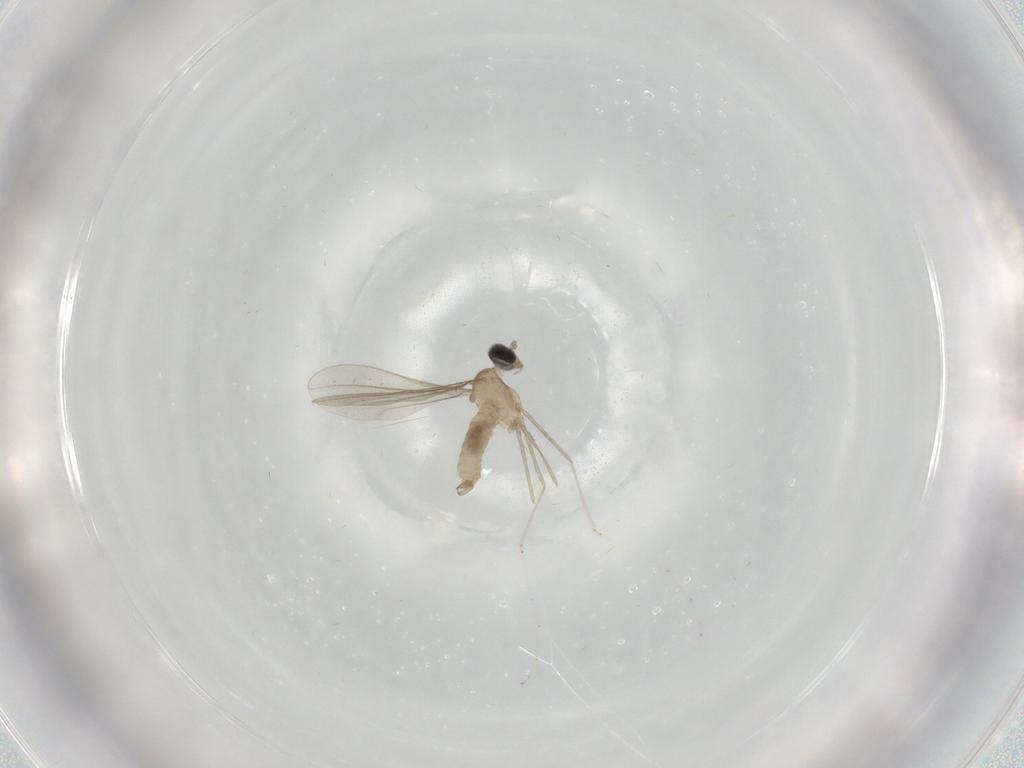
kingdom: Animalia
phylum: Arthropoda
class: Insecta
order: Diptera
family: Cecidomyiidae
